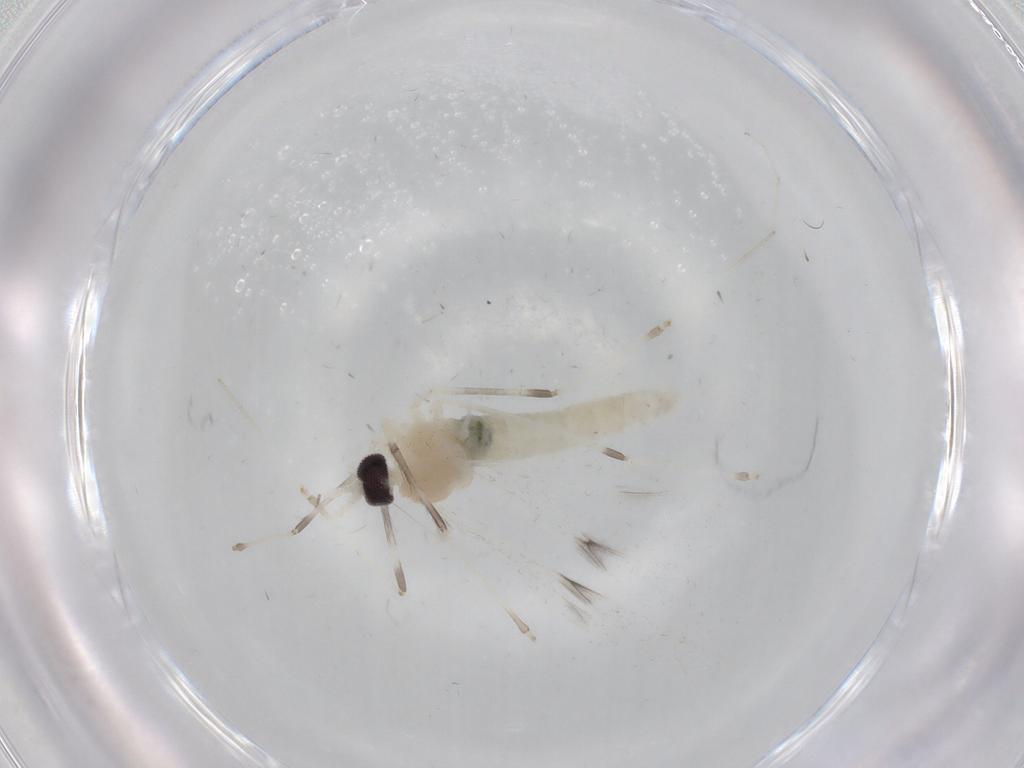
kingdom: Animalia
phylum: Arthropoda
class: Insecta
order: Diptera
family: Cecidomyiidae
